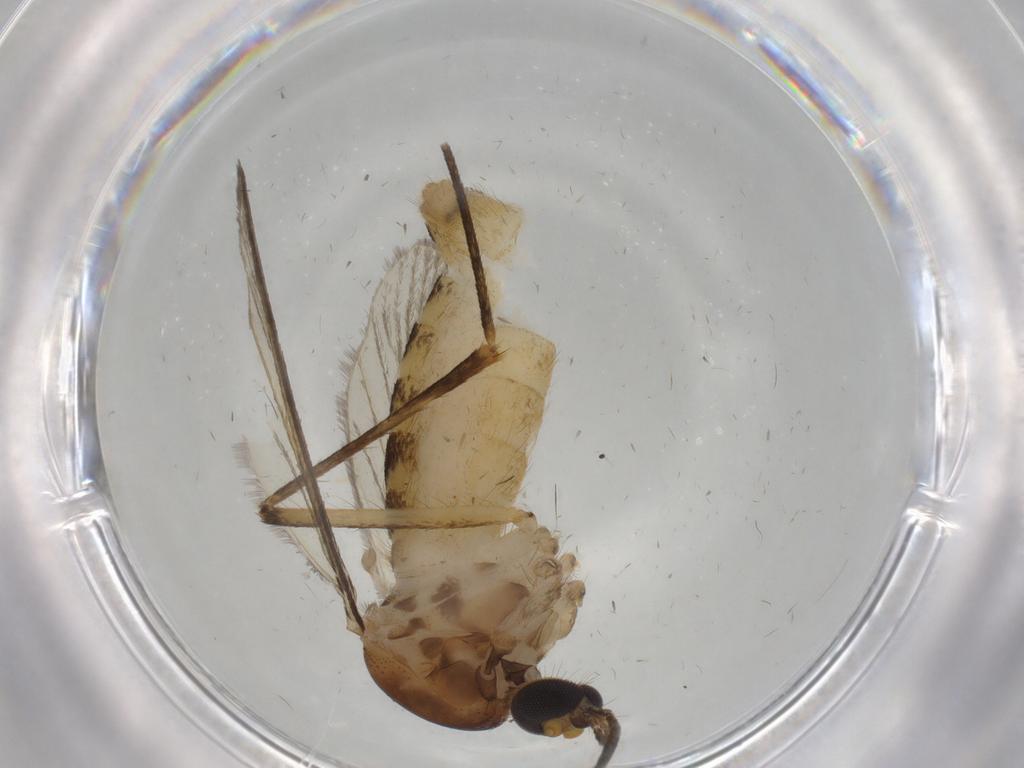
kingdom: Animalia
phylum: Arthropoda
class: Insecta
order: Diptera
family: Culicidae
